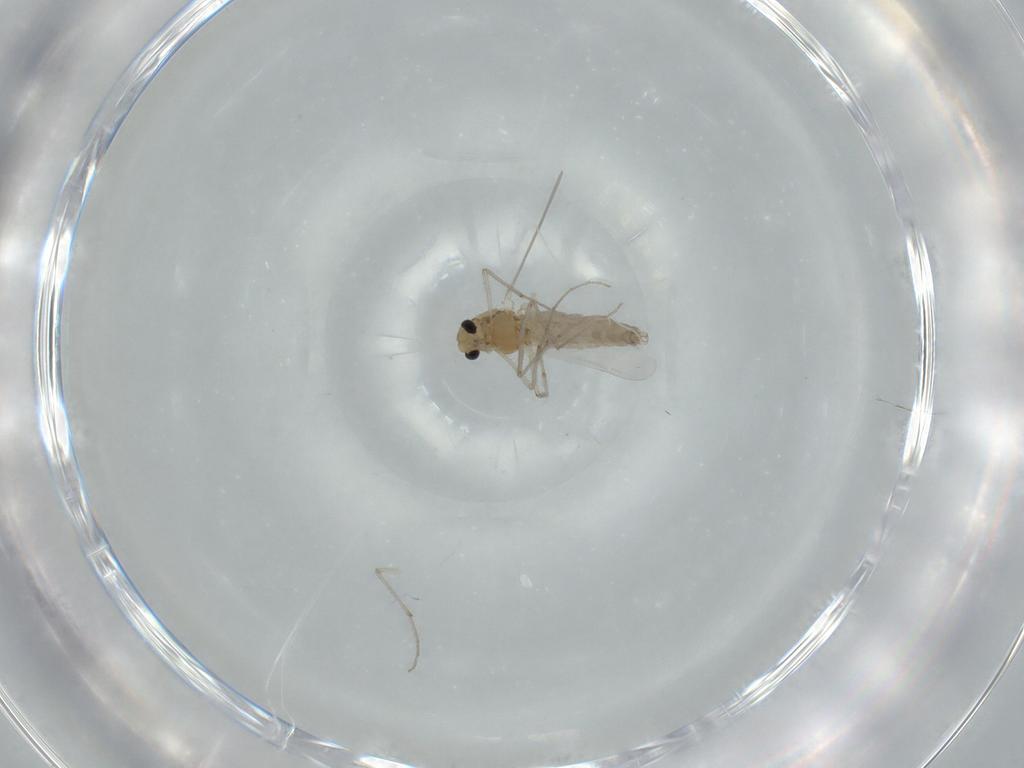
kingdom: Animalia
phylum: Arthropoda
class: Insecta
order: Diptera
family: Chironomidae
